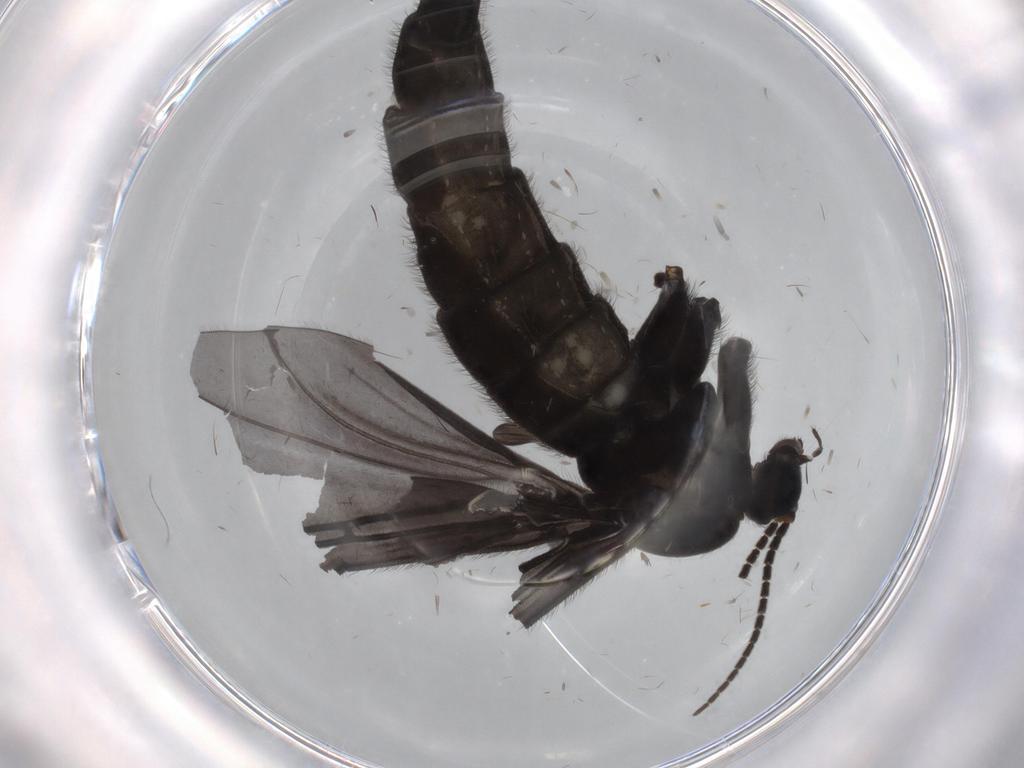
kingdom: Animalia
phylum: Arthropoda
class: Insecta
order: Diptera
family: Sciaridae
